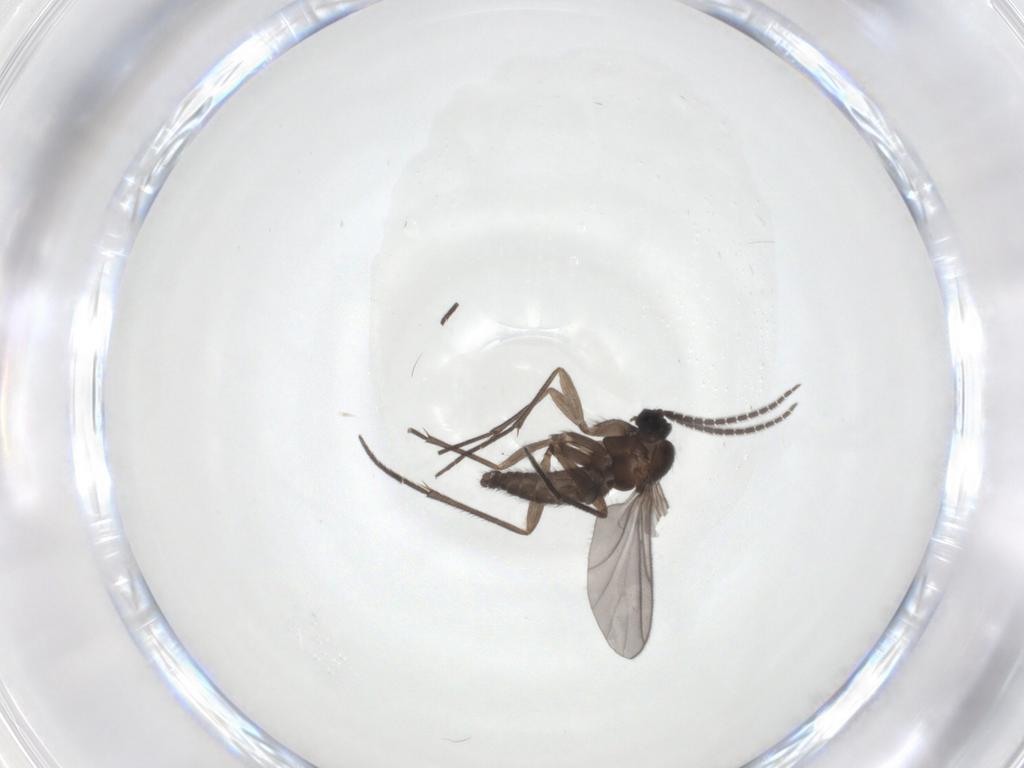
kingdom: Animalia
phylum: Arthropoda
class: Insecta
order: Diptera
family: Sciaridae
